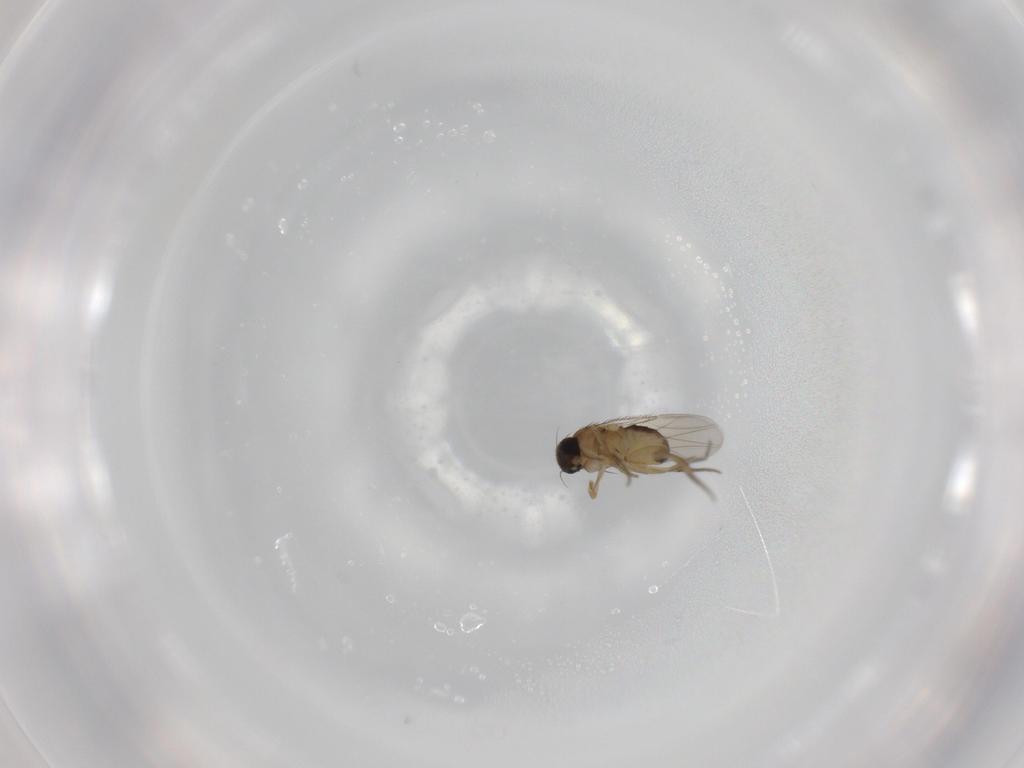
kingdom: Animalia
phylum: Arthropoda
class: Insecta
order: Diptera
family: Phoridae
